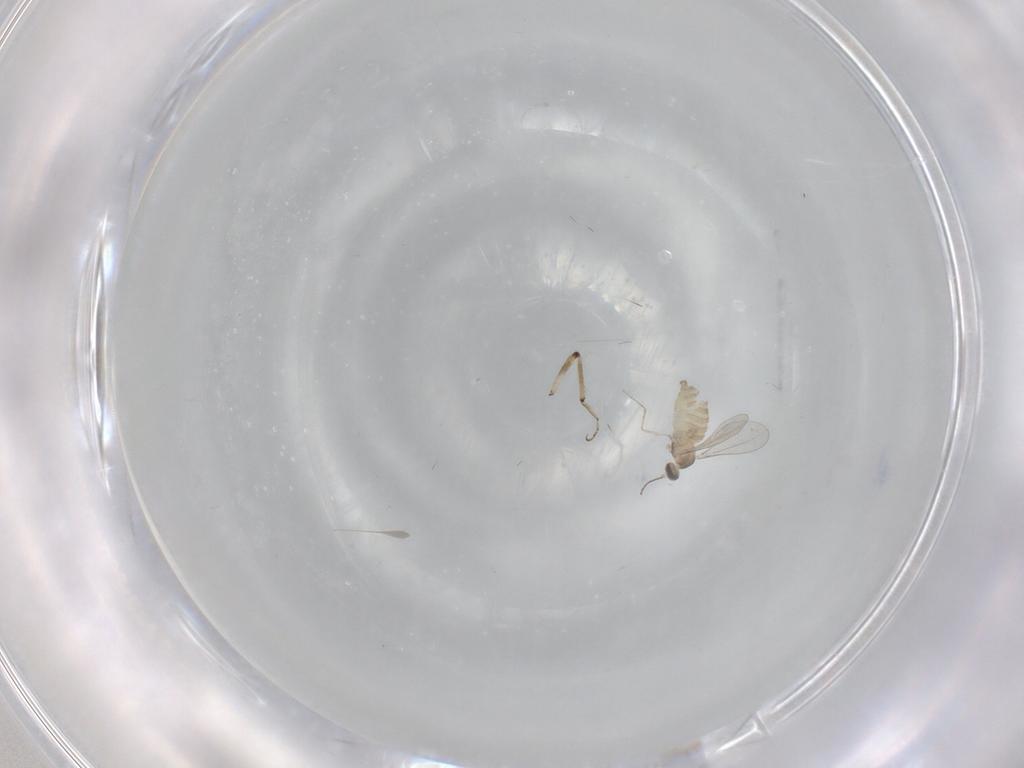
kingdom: Animalia
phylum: Arthropoda
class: Insecta
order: Diptera
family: Cecidomyiidae
